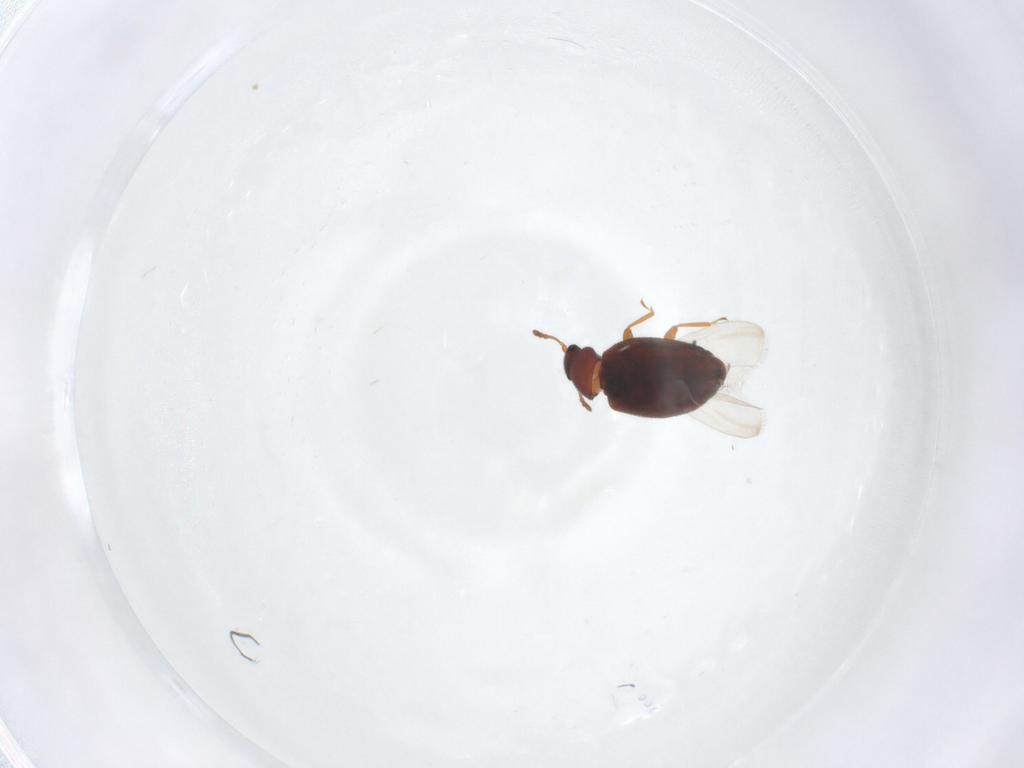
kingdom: Animalia
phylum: Arthropoda
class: Insecta
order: Coleoptera
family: Latridiidae
